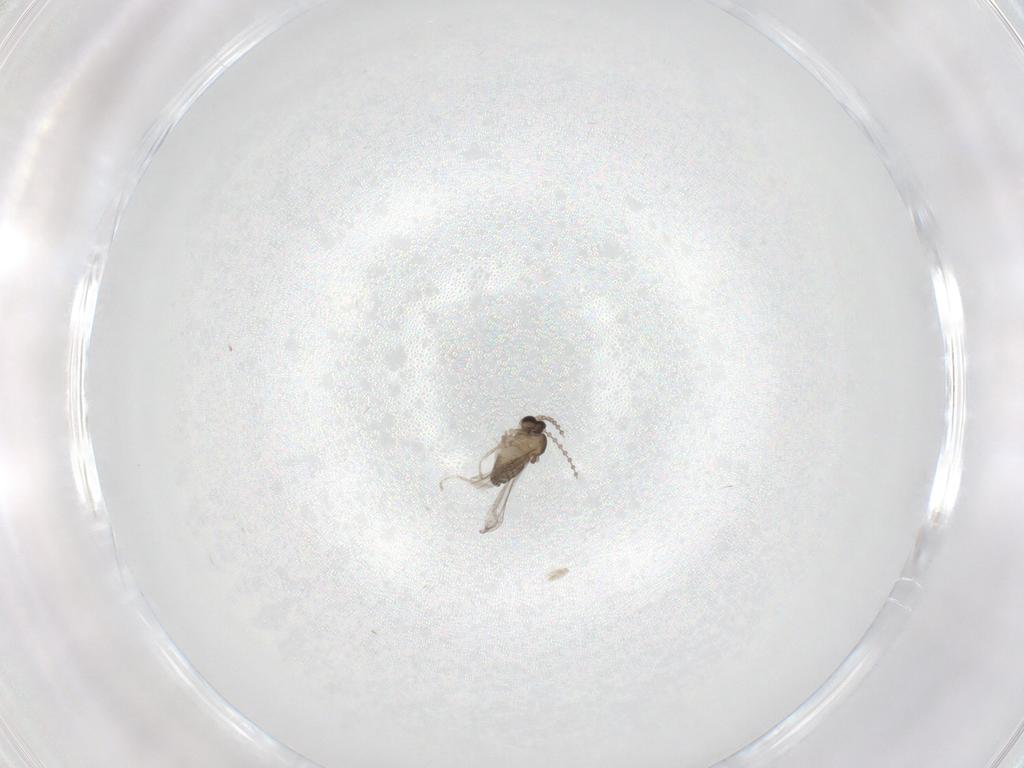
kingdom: Animalia
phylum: Arthropoda
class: Insecta
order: Diptera
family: Cecidomyiidae
